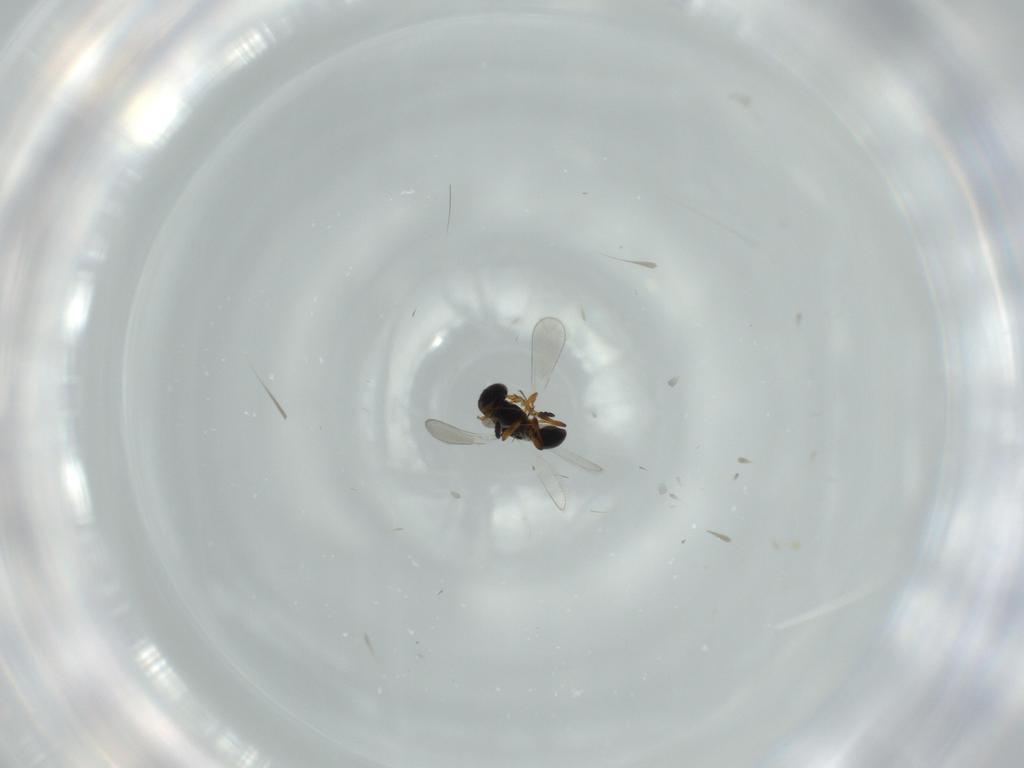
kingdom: Animalia
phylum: Arthropoda
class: Insecta
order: Hymenoptera
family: Platygastridae
